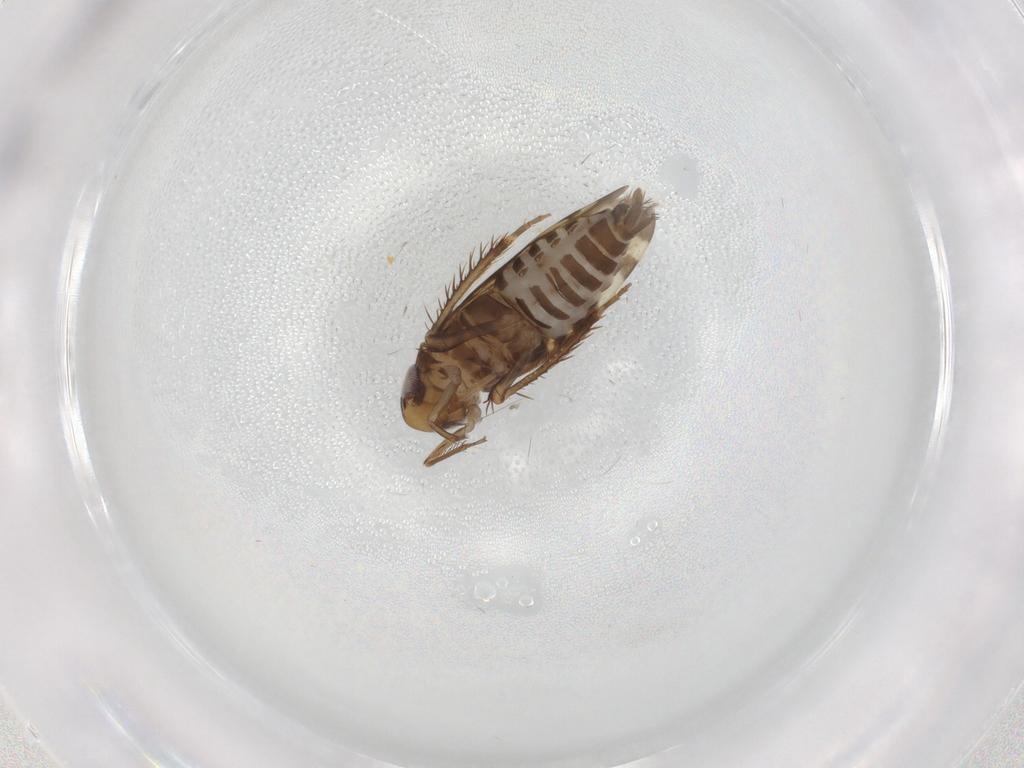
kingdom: Animalia
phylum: Arthropoda
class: Insecta
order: Hemiptera
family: Cicadellidae
